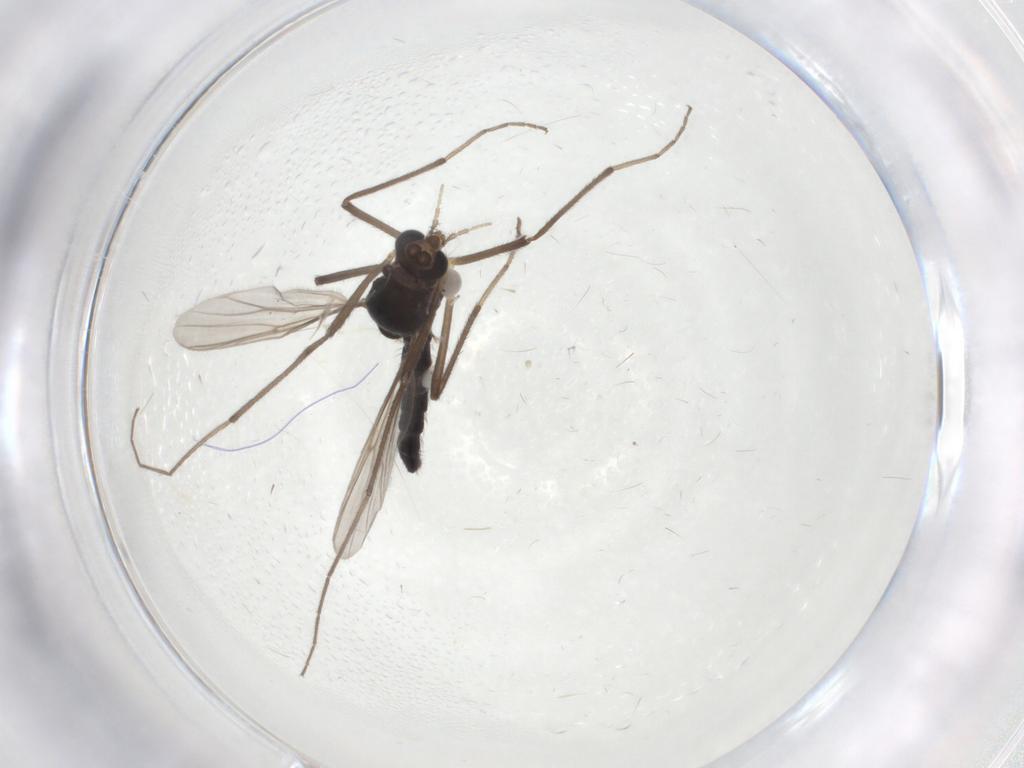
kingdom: Animalia
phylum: Arthropoda
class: Insecta
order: Diptera
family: Chironomidae
